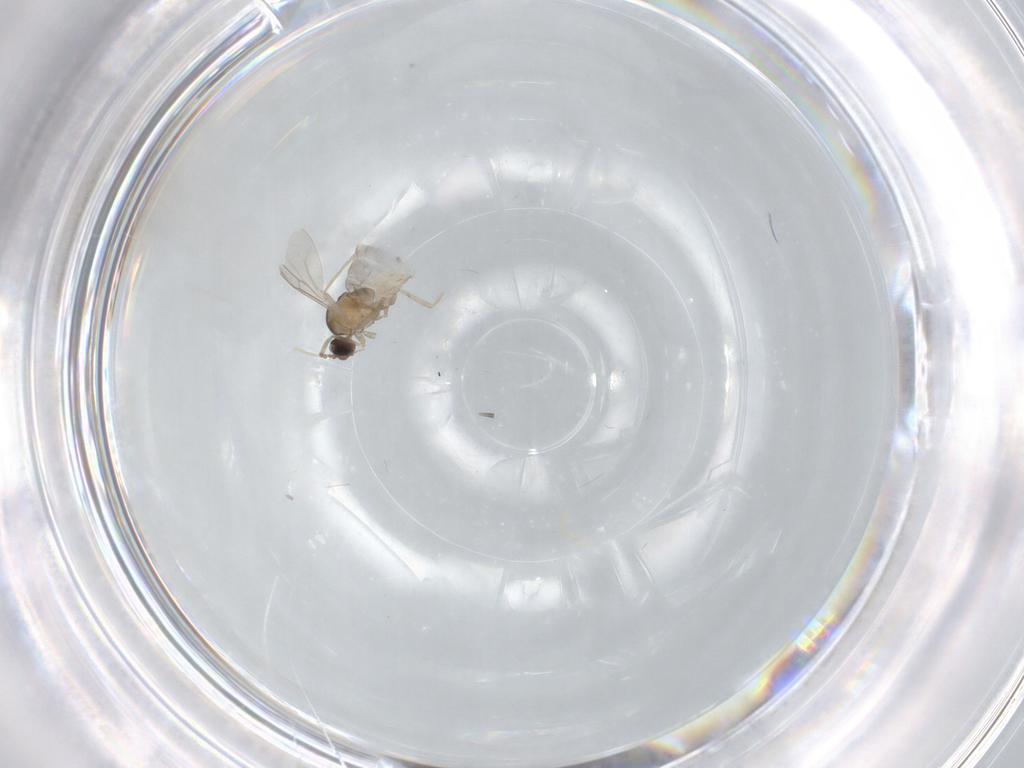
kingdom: Animalia
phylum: Arthropoda
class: Insecta
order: Diptera
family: Cecidomyiidae
